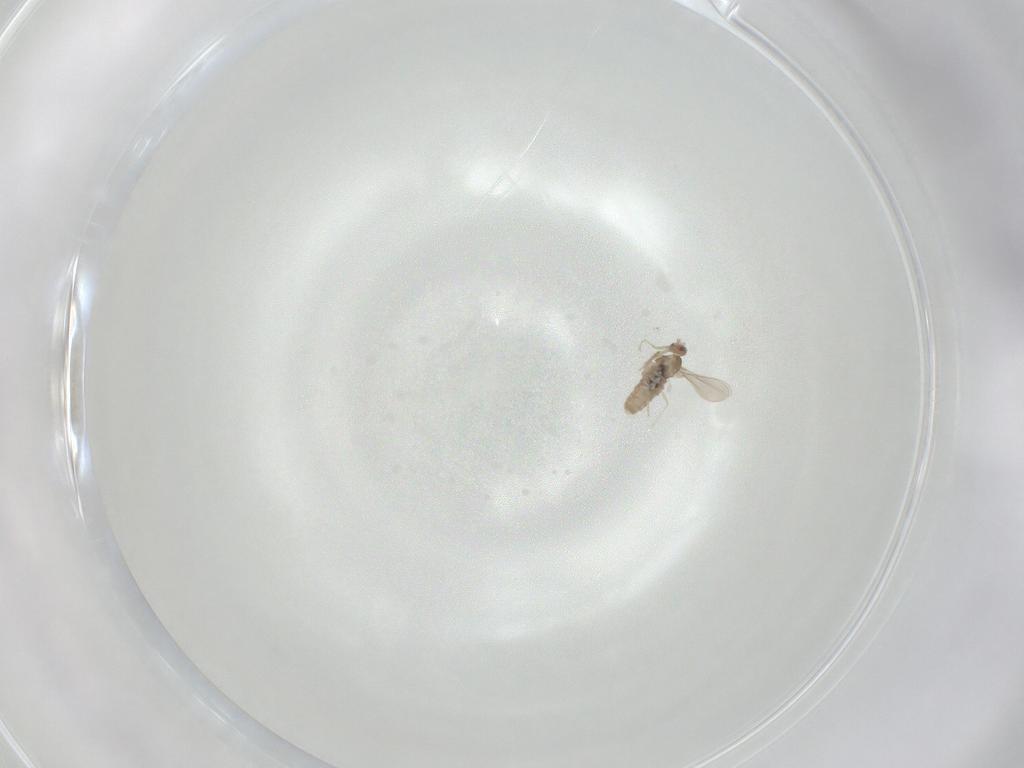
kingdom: Animalia
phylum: Arthropoda
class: Insecta
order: Diptera
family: Cecidomyiidae
